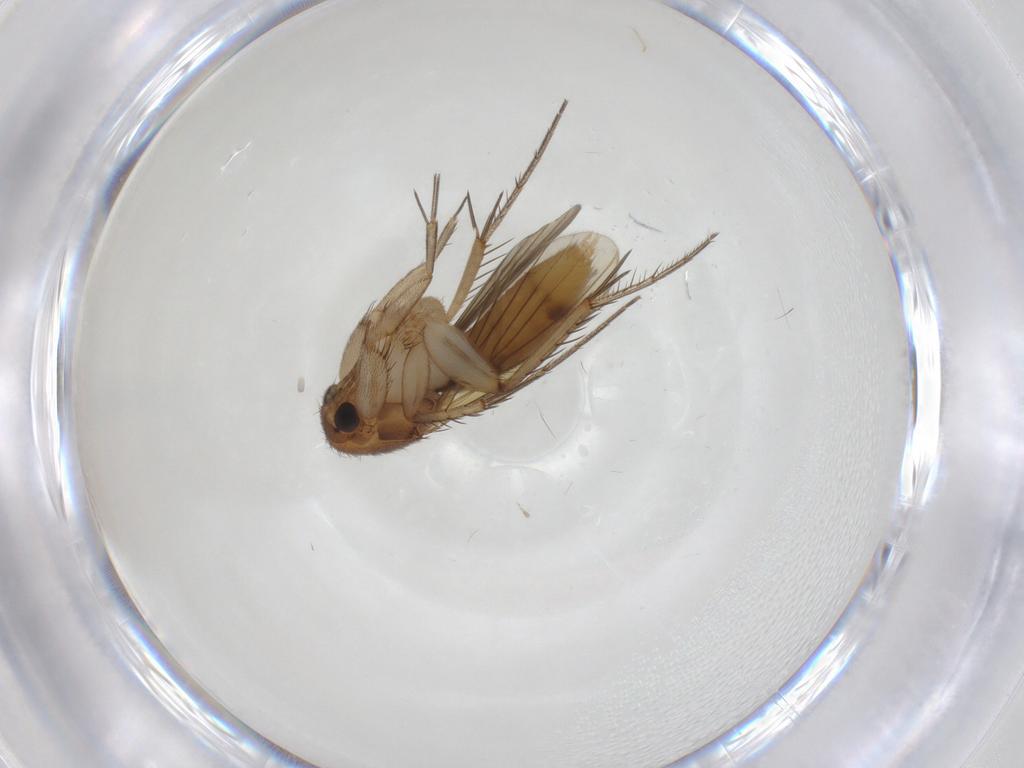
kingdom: Animalia
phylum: Arthropoda
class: Insecta
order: Diptera
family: Mycetophilidae
